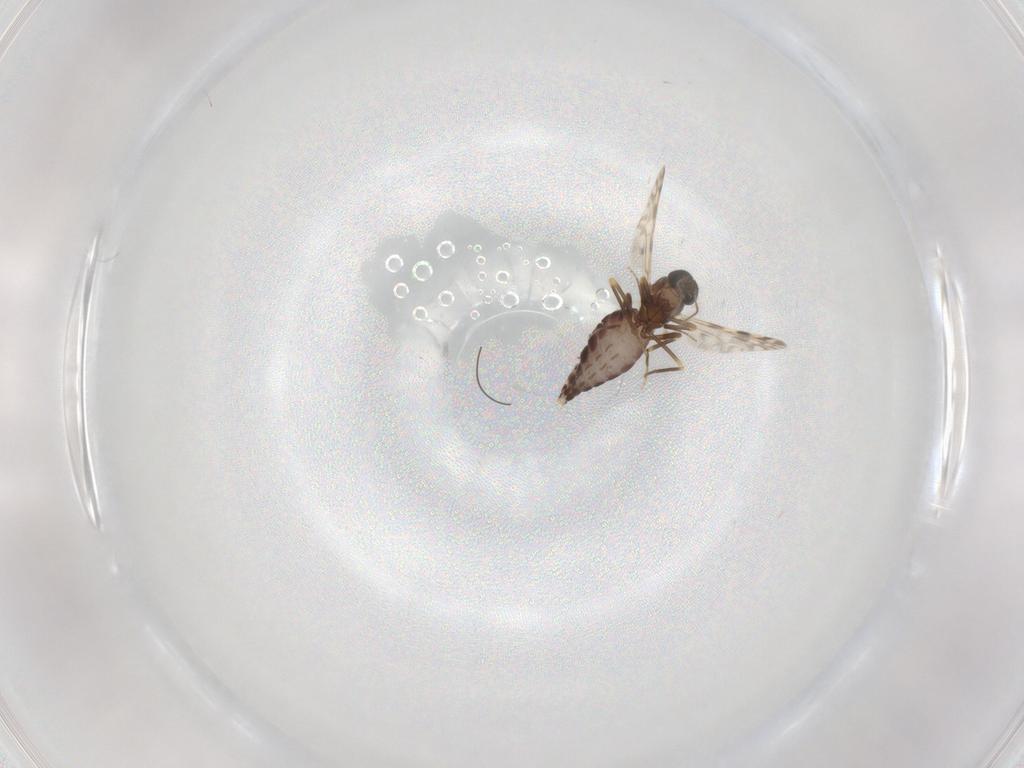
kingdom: Animalia
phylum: Arthropoda
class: Insecta
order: Diptera
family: Ceratopogonidae
